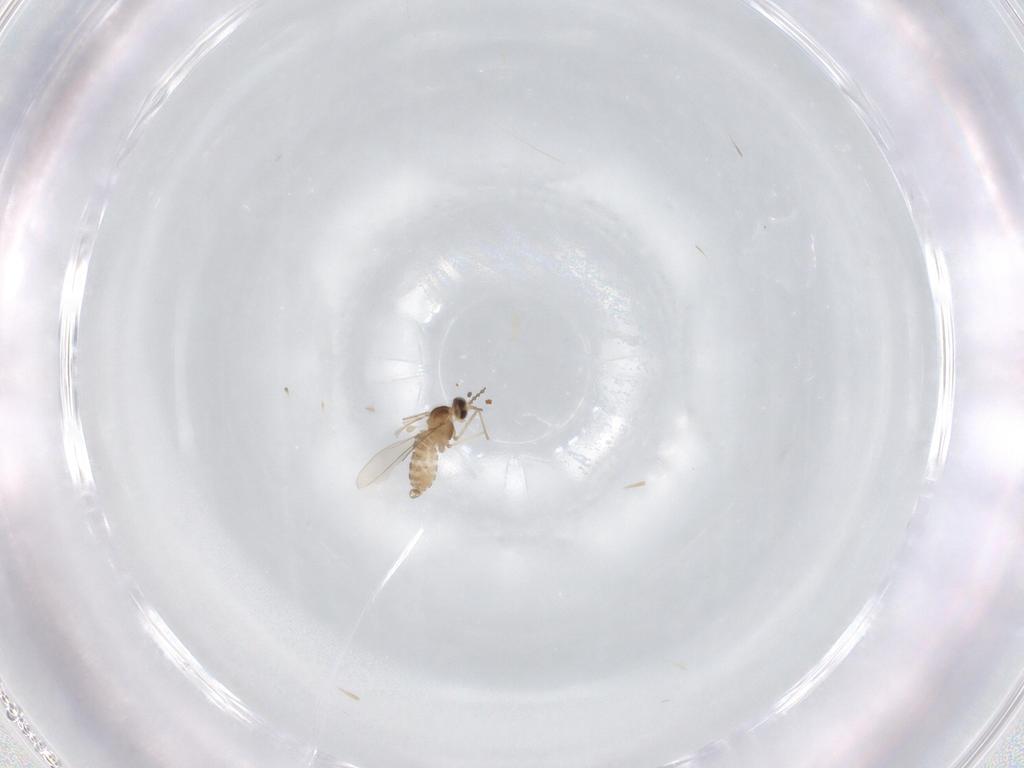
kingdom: Animalia
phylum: Arthropoda
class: Insecta
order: Diptera
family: Cecidomyiidae
